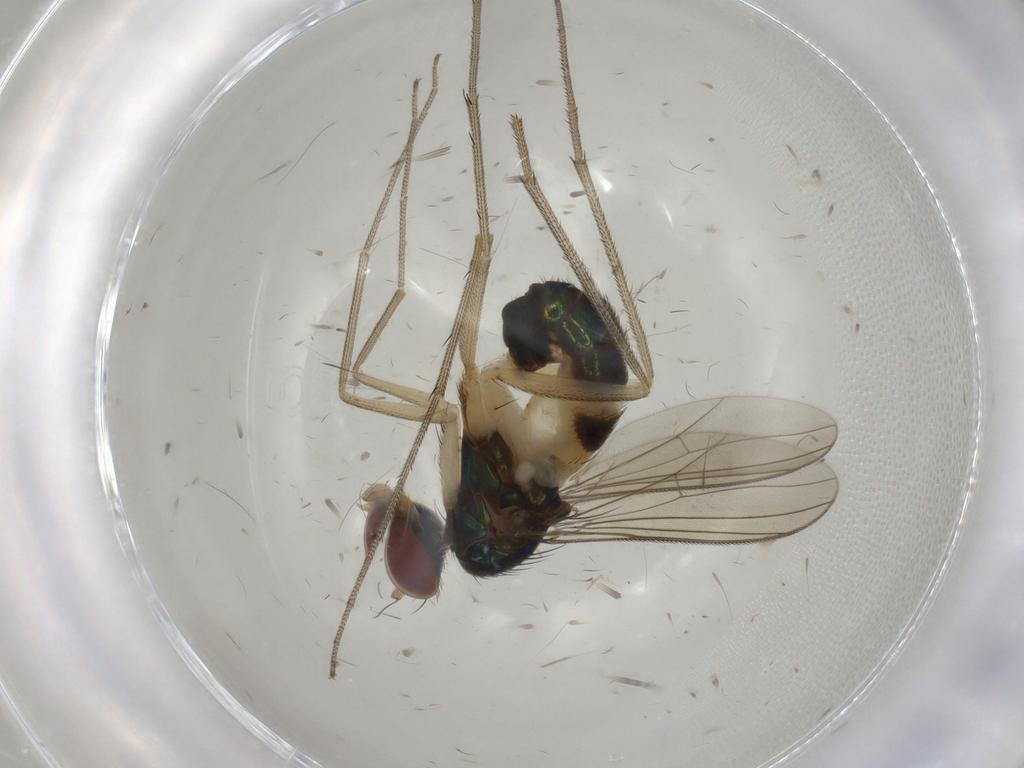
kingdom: Animalia
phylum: Arthropoda
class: Insecta
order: Diptera
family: Dolichopodidae
